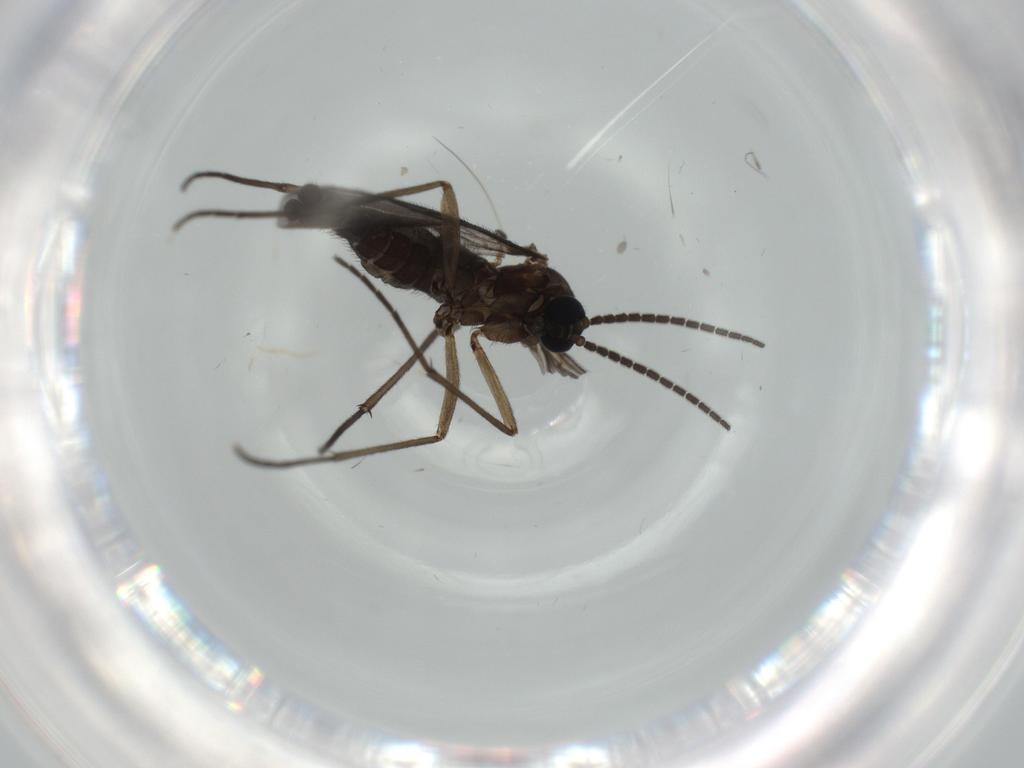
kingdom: Animalia
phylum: Arthropoda
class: Insecta
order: Diptera
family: Sciaridae
